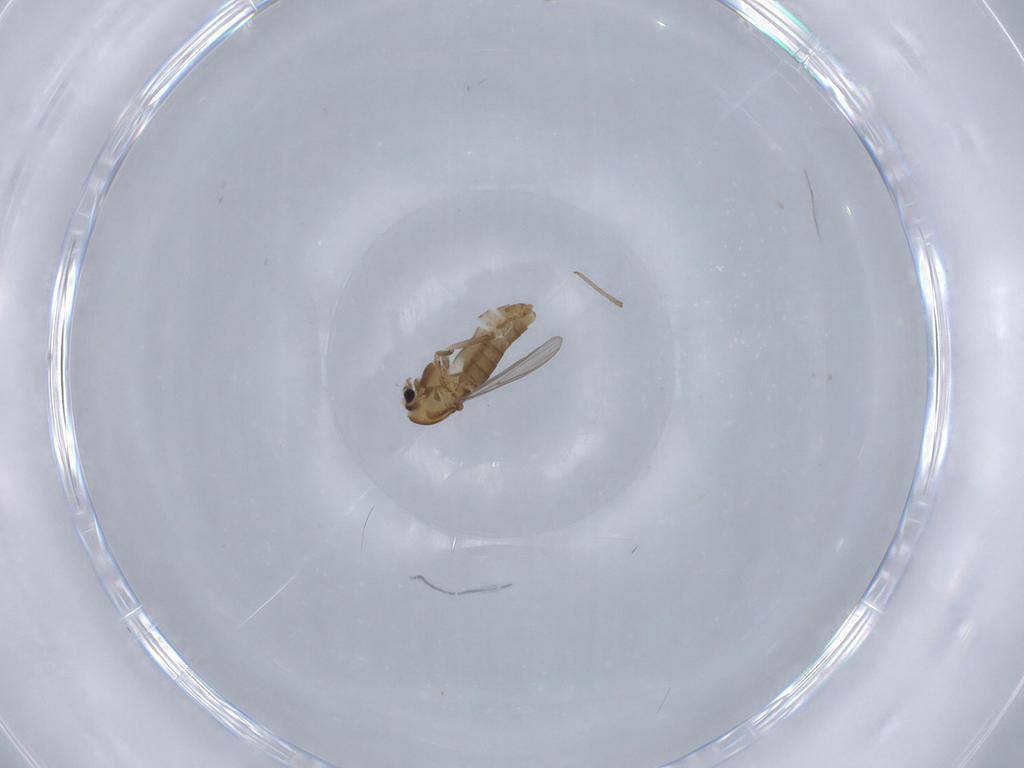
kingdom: Animalia
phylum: Arthropoda
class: Insecta
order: Diptera
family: Chironomidae
